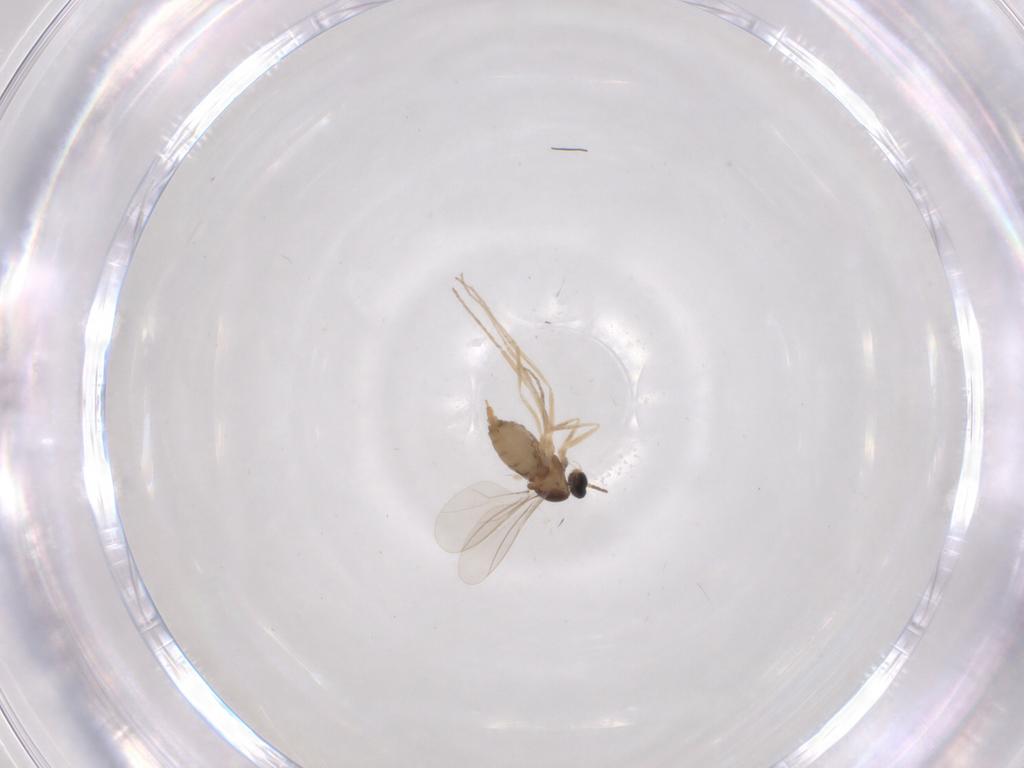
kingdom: Animalia
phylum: Arthropoda
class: Insecta
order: Diptera
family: Cecidomyiidae
